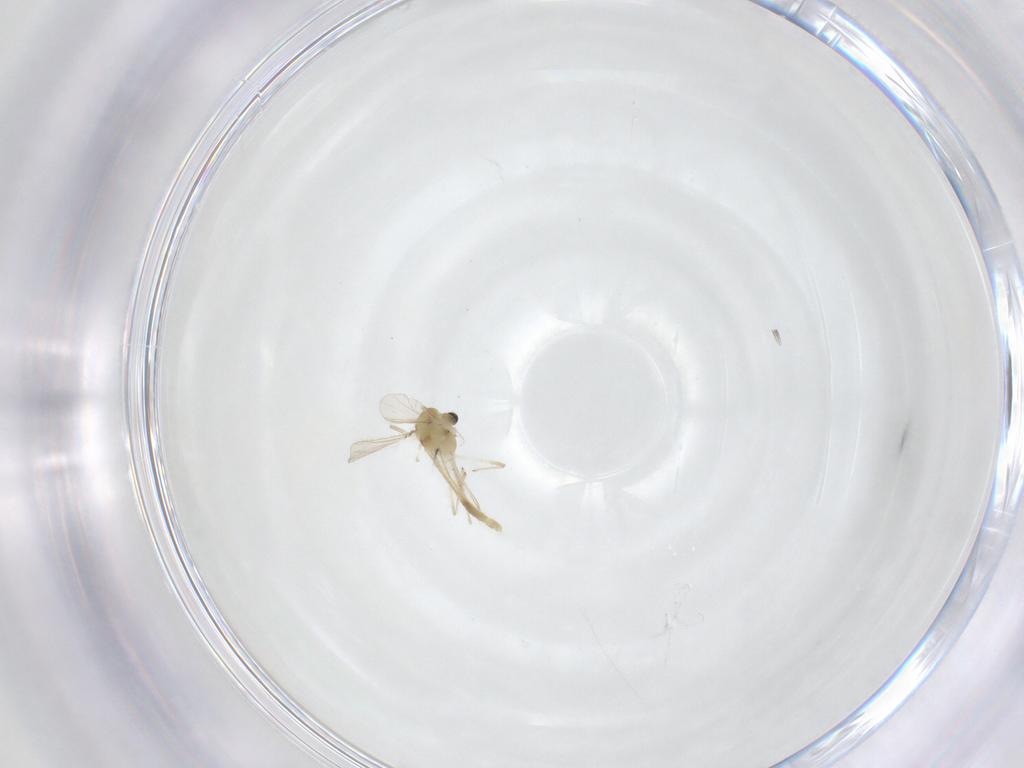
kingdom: Animalia
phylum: Arthropoda
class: Insecta
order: Diptera
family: Chironomidae
